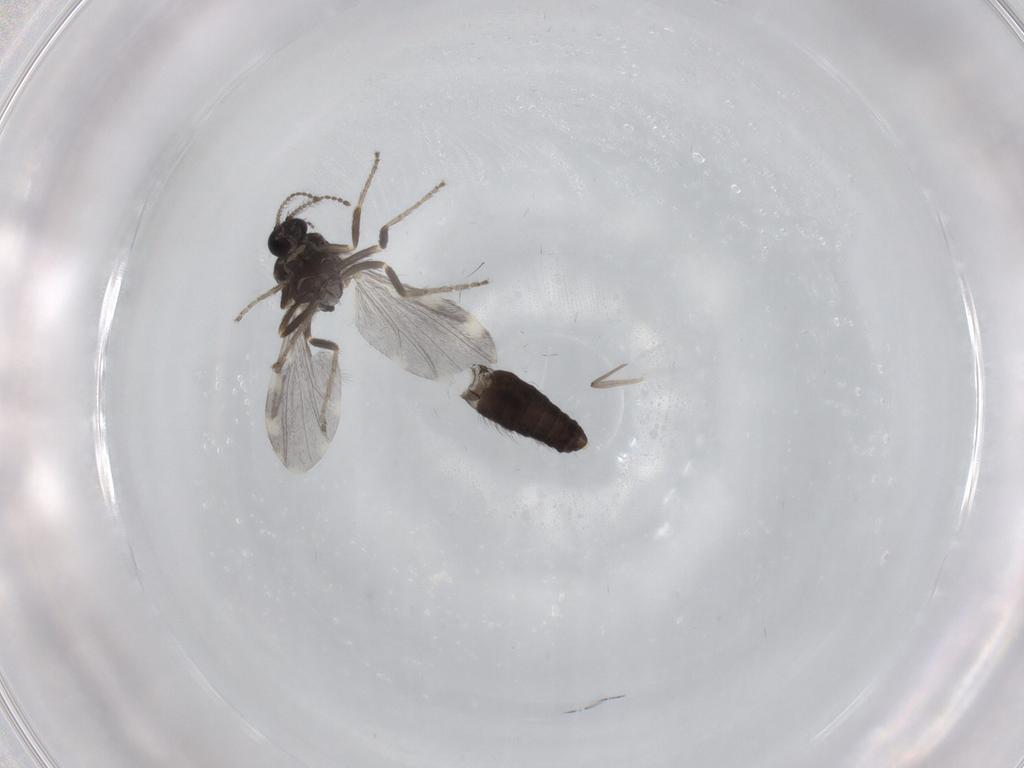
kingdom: Animalia
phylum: Arthropoda
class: Insecta
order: Diptera
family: Ceratopogonidae
